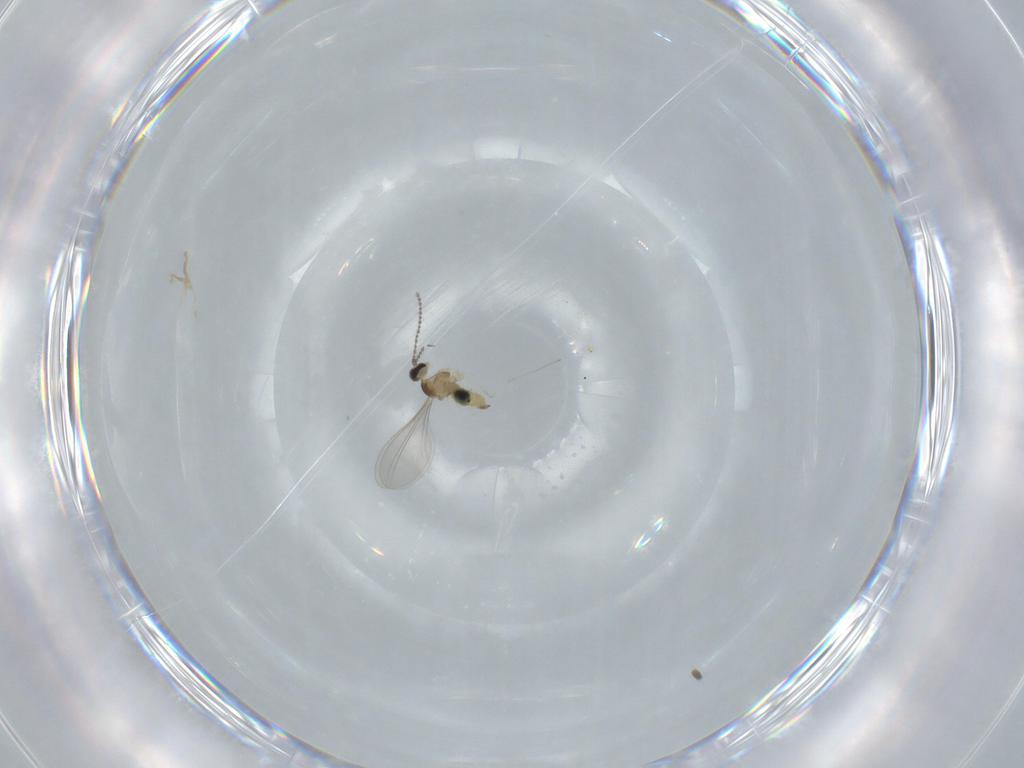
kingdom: Animalia
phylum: Arthropoda
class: Insecta
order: Diptera
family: Cecidomyiidae
